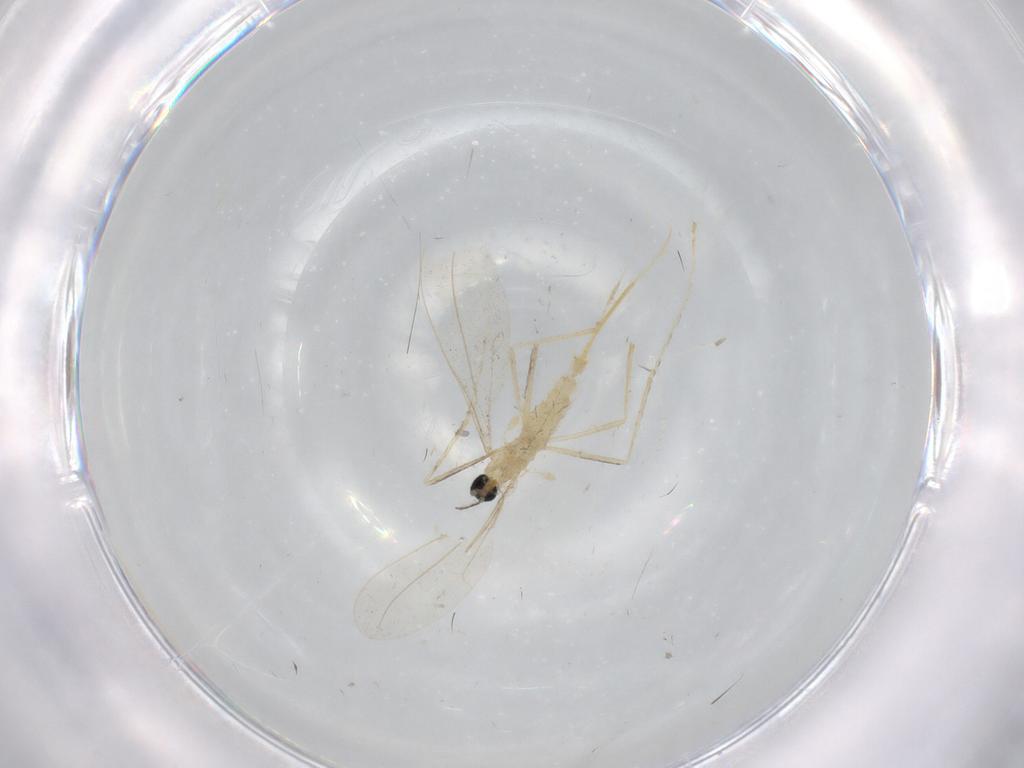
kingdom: Animalia
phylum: Arthropoda
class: Insecta
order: Diptera
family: Cecidomyiidae
